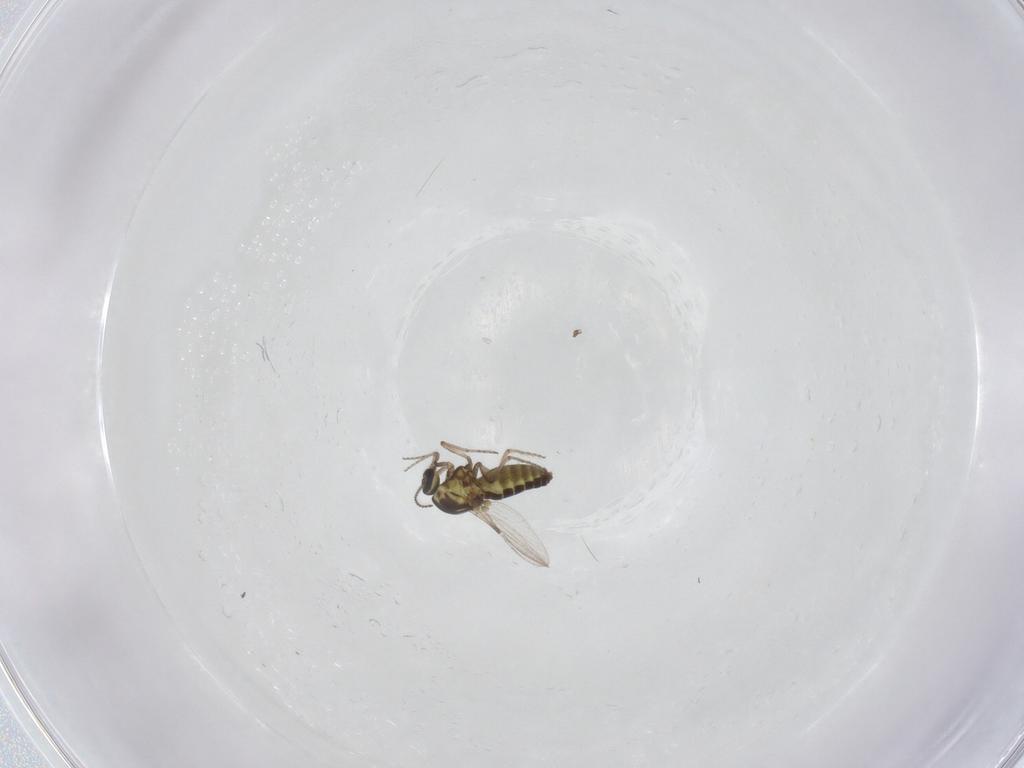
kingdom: Animalia
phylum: Arthropoda
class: Insecta
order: Diptera
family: Ceratopogonidae
